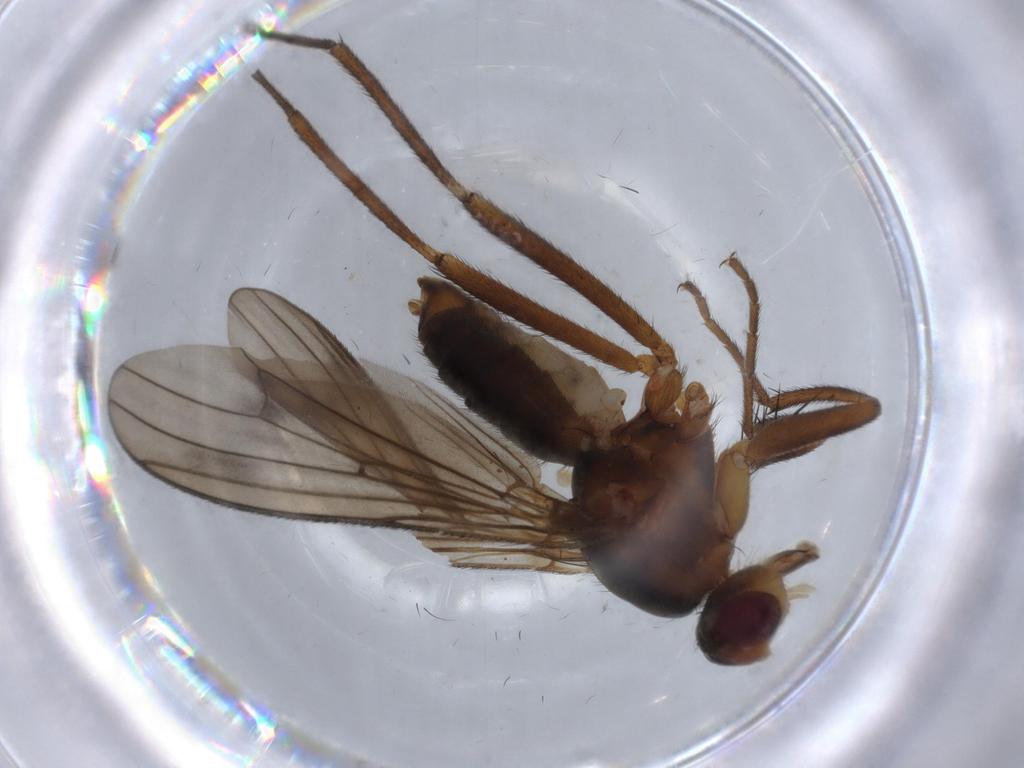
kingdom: Animalia
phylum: Arthropoda
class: Insecta
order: Diptera
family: Scathophagidae
